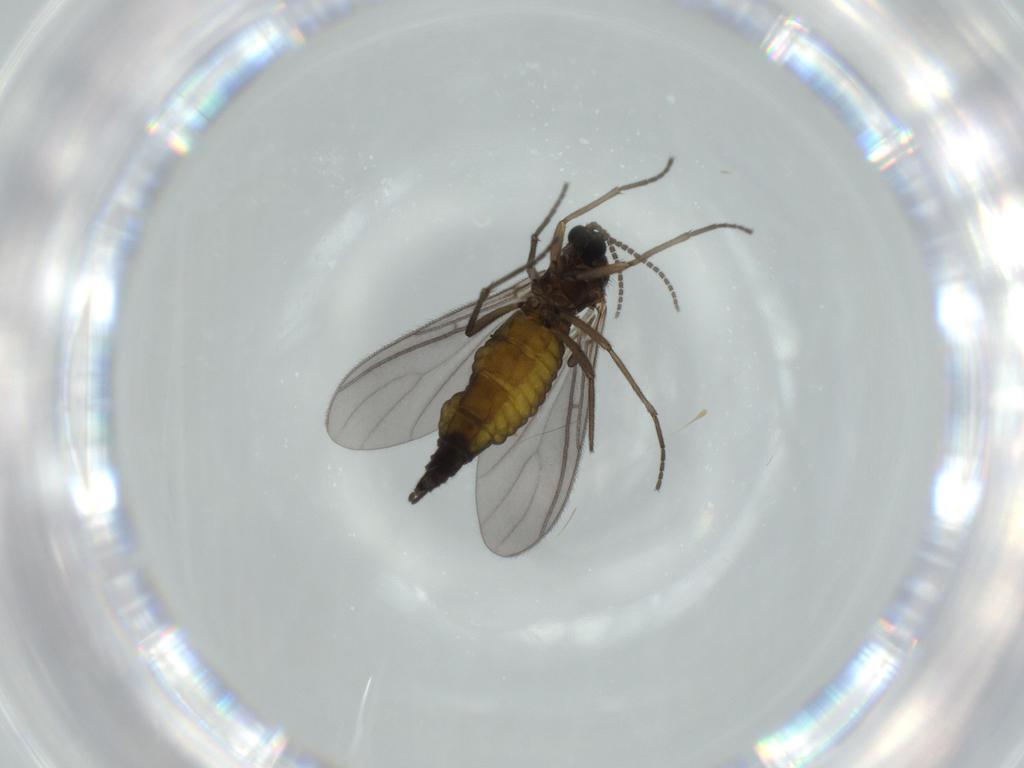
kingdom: Animalia
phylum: Arthropoda
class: Insecta
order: Diptera
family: Sciaridae
